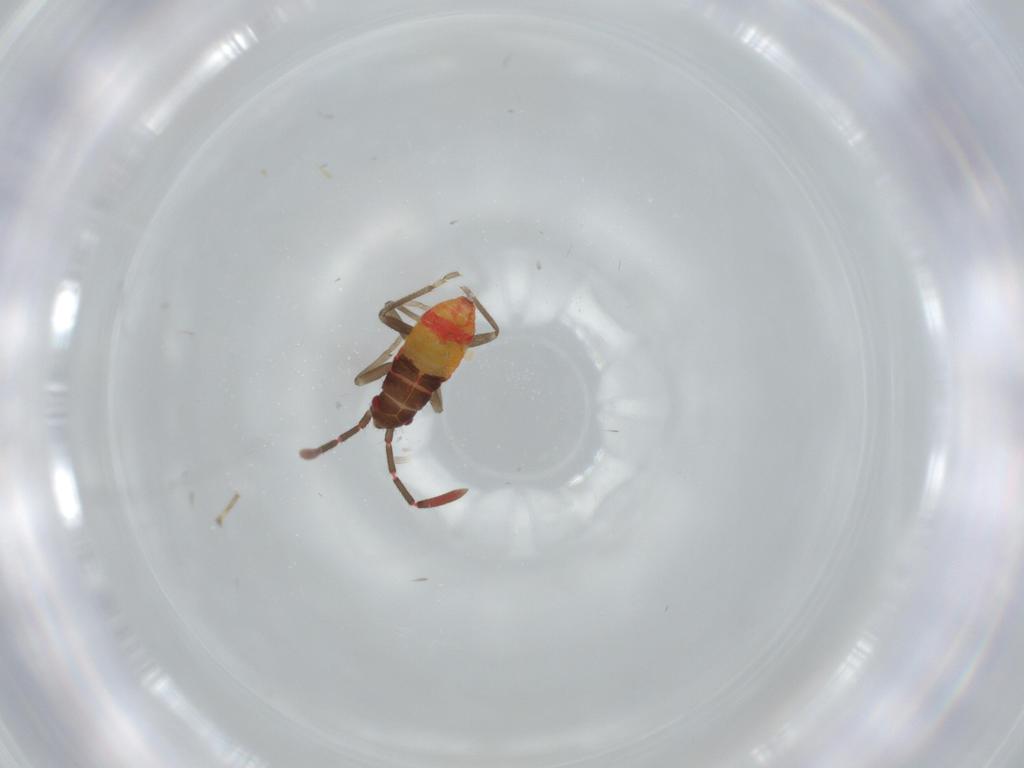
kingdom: Animalia
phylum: Arthropoda
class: Insecta
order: Hemiptera
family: Rhyparochromidae
